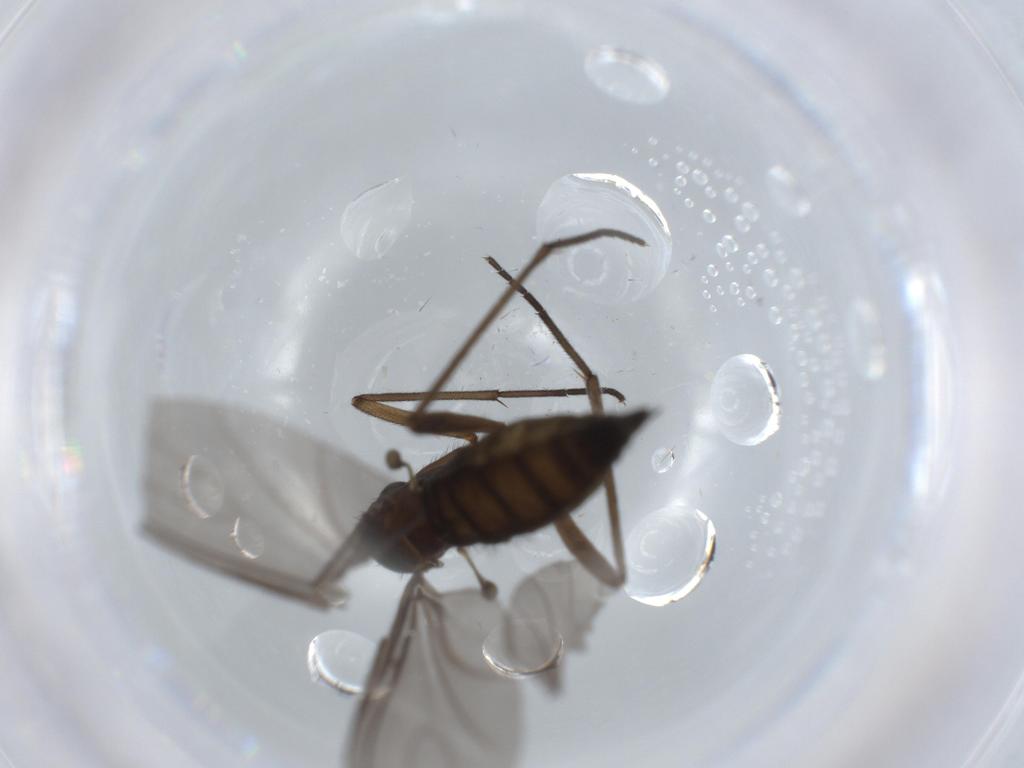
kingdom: Animalia
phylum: Arthropoda
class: Insecta
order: Diptera
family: Sciaridae
